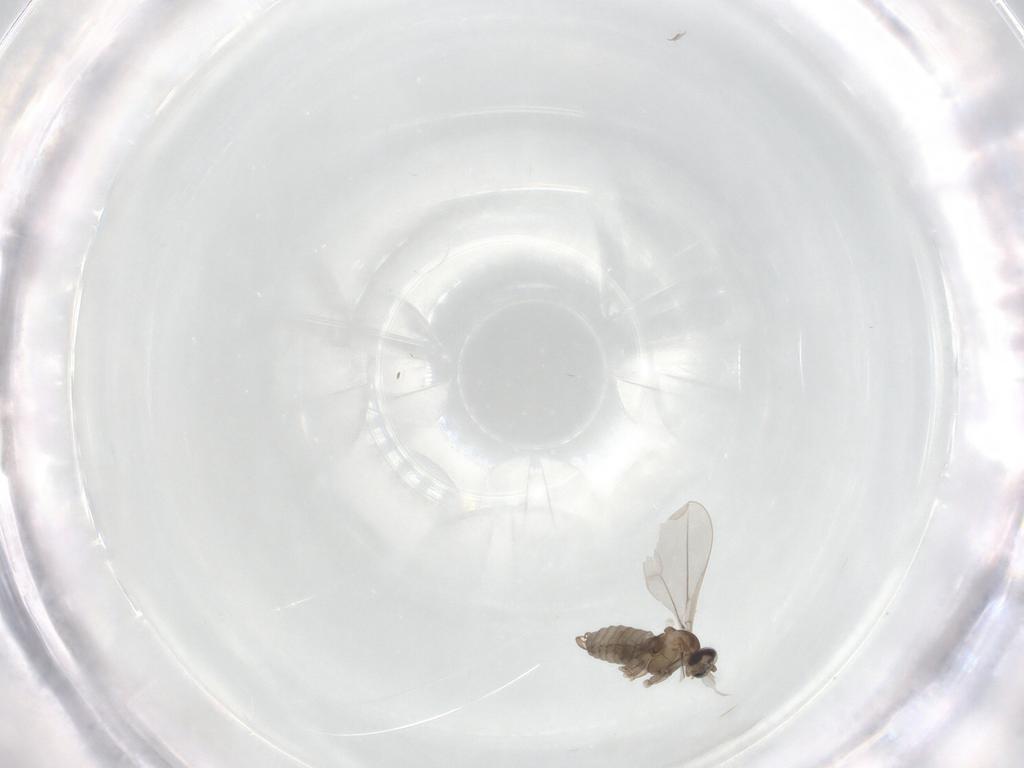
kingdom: Animalia
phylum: Arthropoda
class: Insecta
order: Diptera
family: Cecidomyiidae
